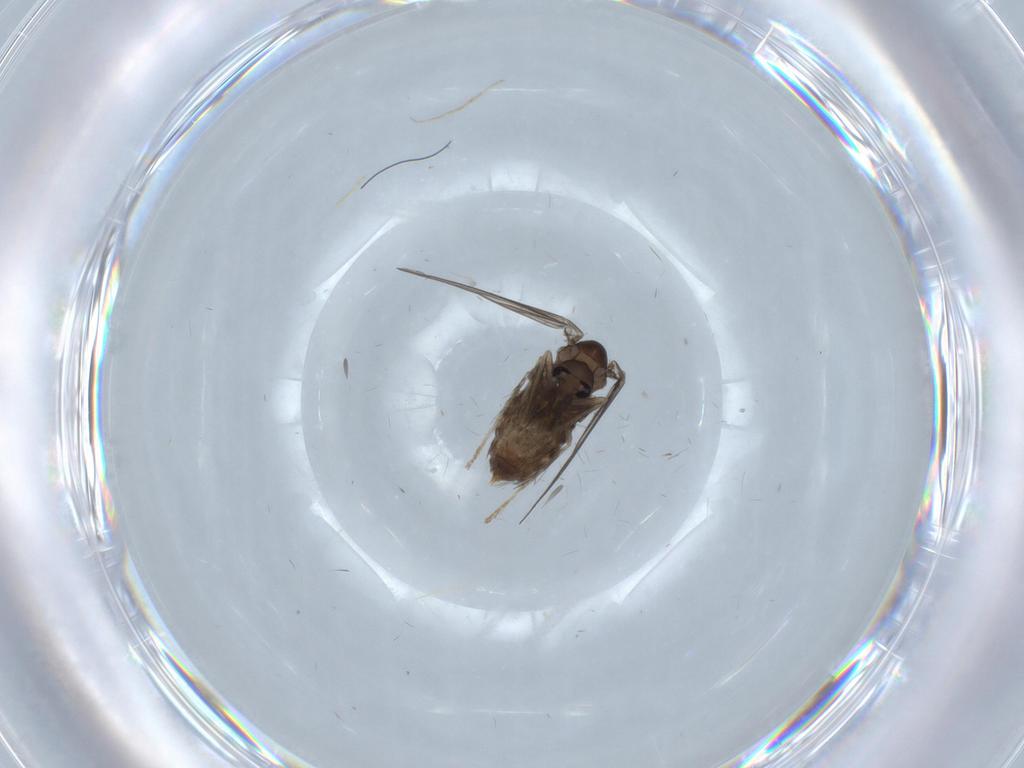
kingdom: Animalia
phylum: Arthropoda
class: Insecta
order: Diptera
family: Psychodidae
